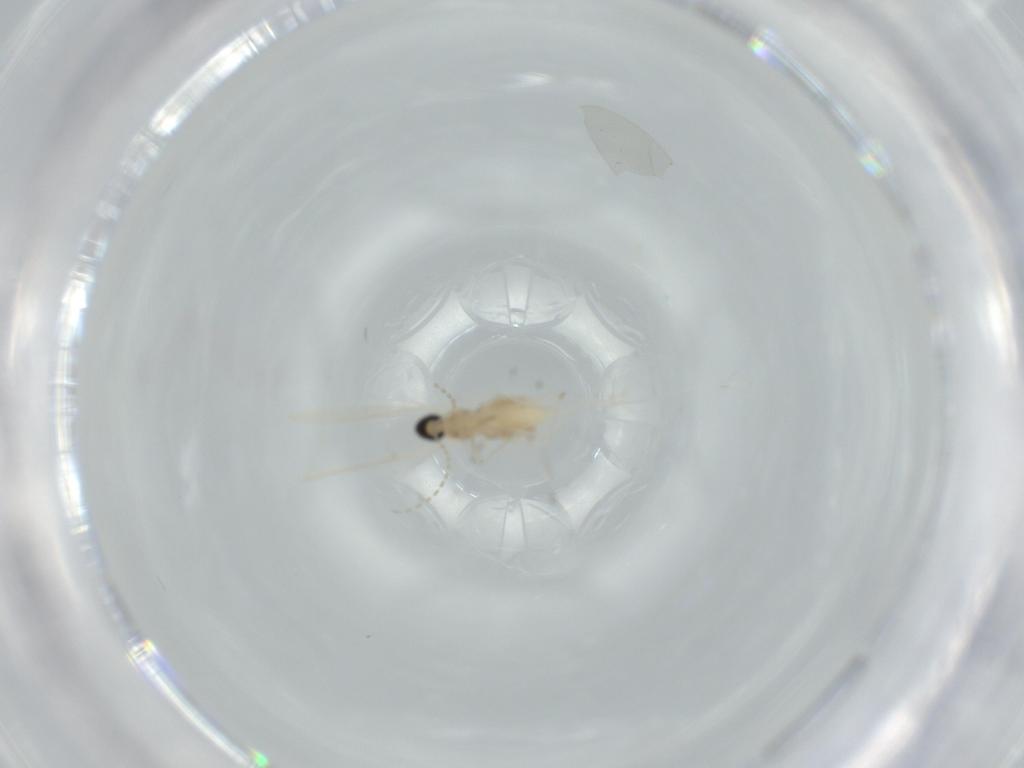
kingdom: Animalia
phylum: Arthropoda
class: Insecta
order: Diptera
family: Cecidomyiidae
